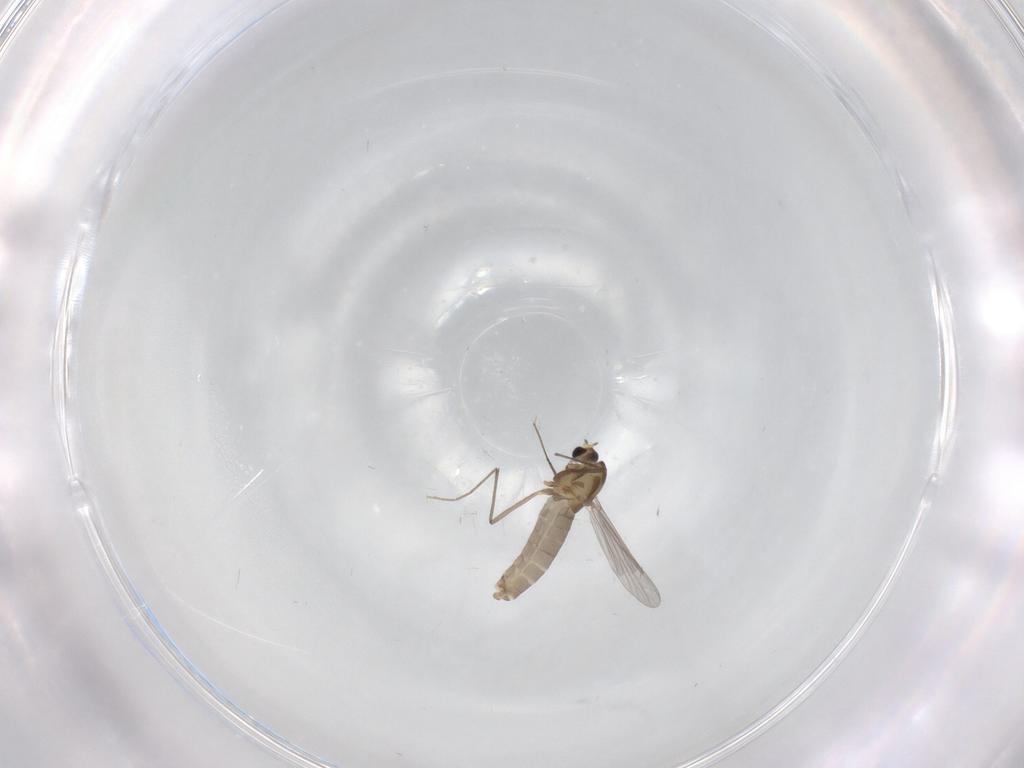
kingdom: Animalia
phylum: Arthropoda
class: Insecta
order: Diptera
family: Chironomidae
